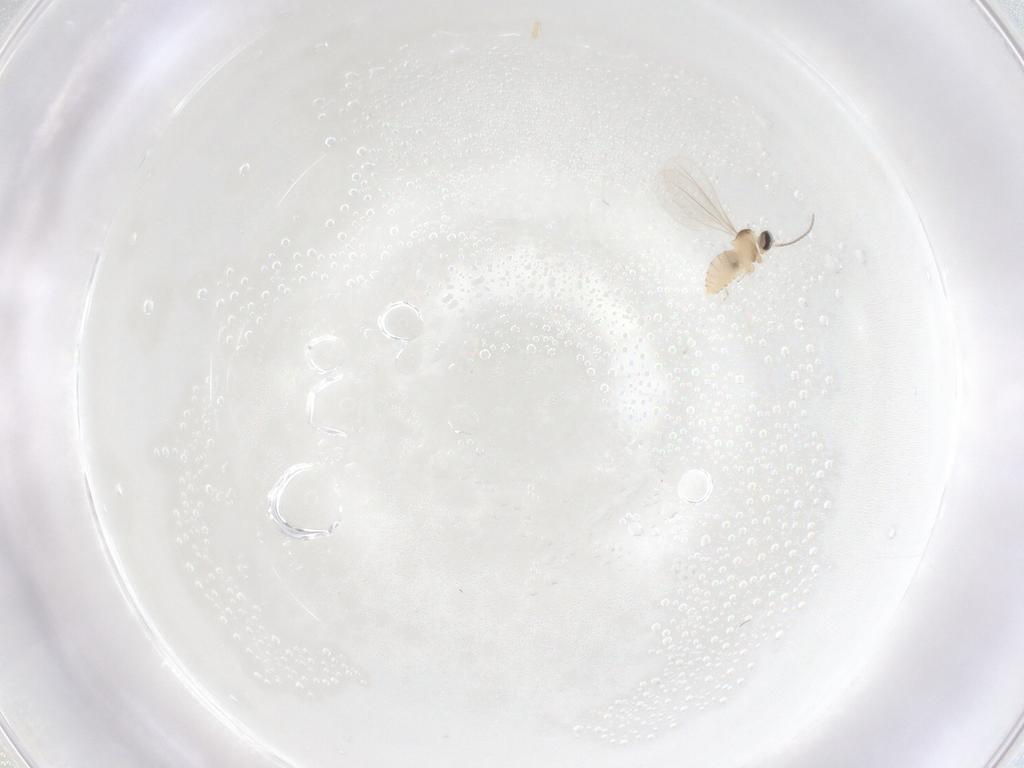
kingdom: Animalia
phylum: Arthropoda
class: Insecta
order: Diptera
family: Cecidomyiidae
